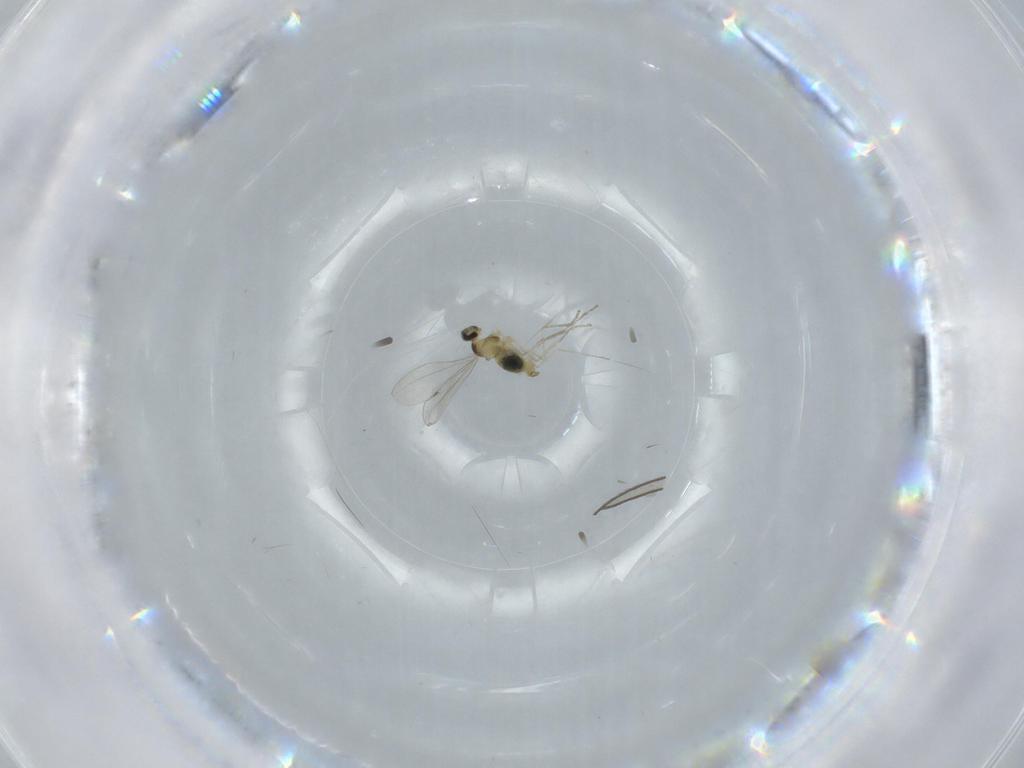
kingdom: Animalia
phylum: Arthropoda
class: Insecta
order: Diptera
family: Cecidomyiidae
